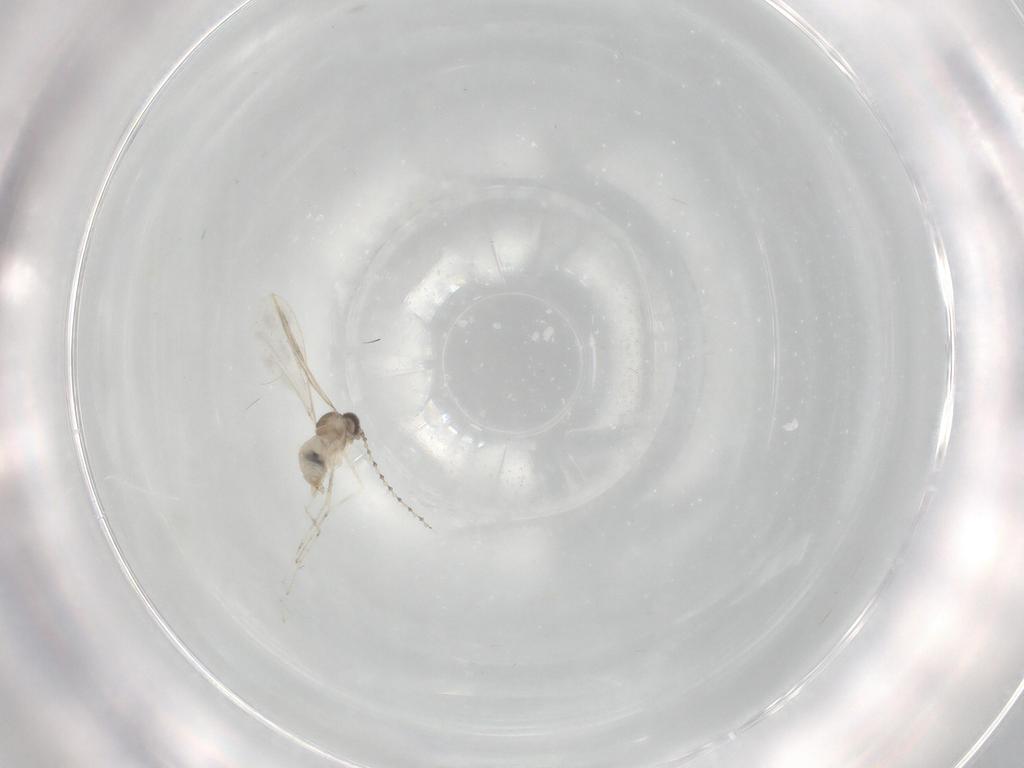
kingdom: Animalia
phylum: Arthropoda
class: Insecta
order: Diptera
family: Cecidomyiidae
